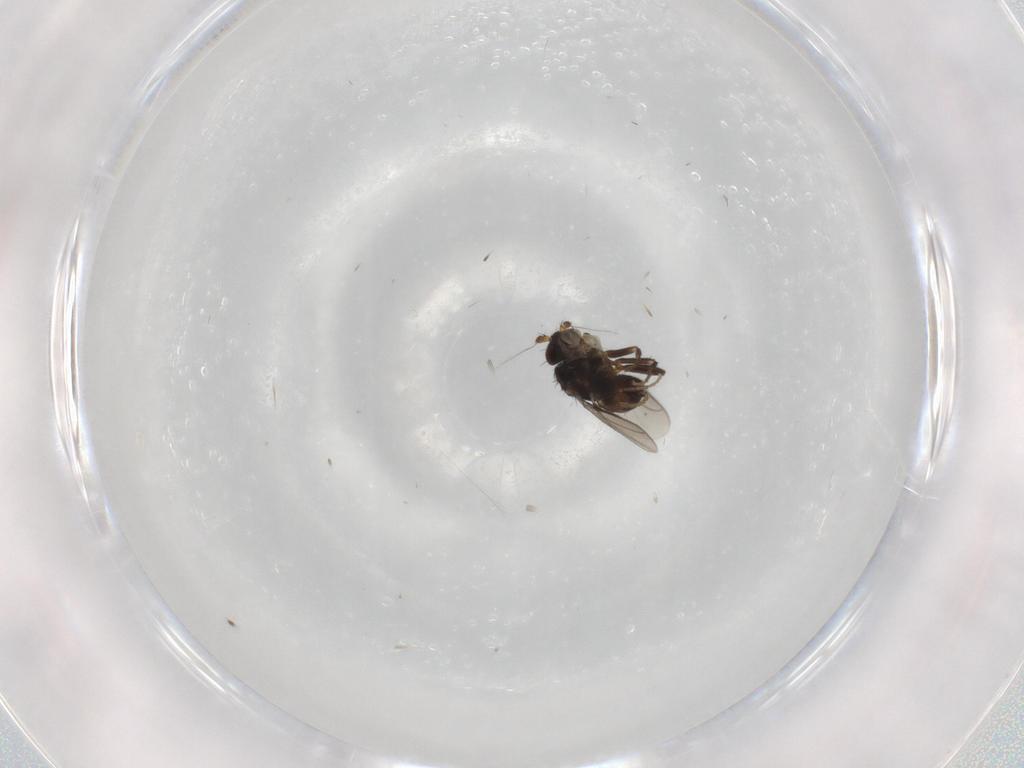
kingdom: Animalia
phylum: Arthropoda
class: Insecta
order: Diptera
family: Sphaeroceridae
